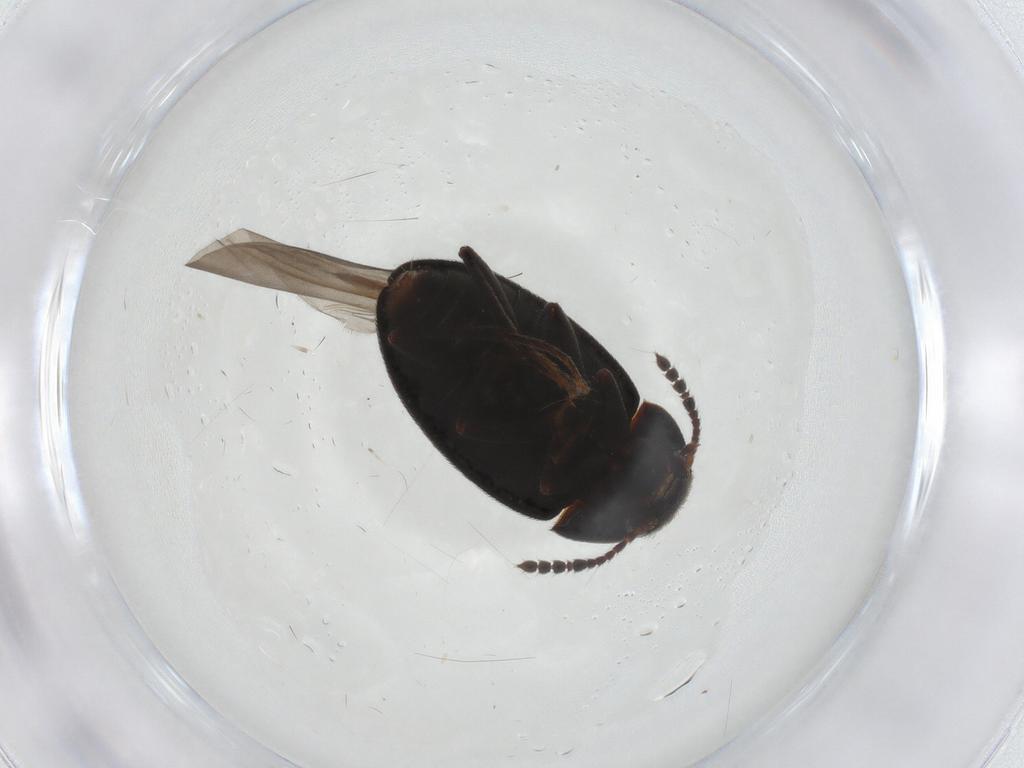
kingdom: Animalia
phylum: Arthropoda
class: Insecta
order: Coleoptera
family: Leiodidae
